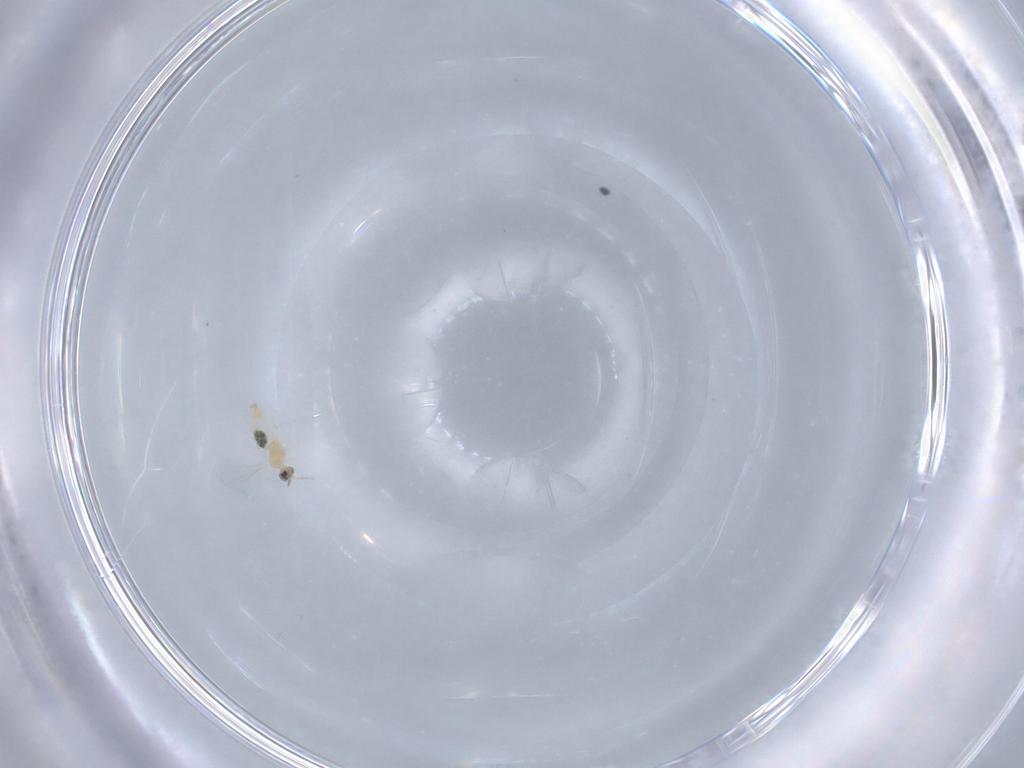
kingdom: Animalia
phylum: Arthropoda
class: Insecta
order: Diptera
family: Cecidomyiidae
